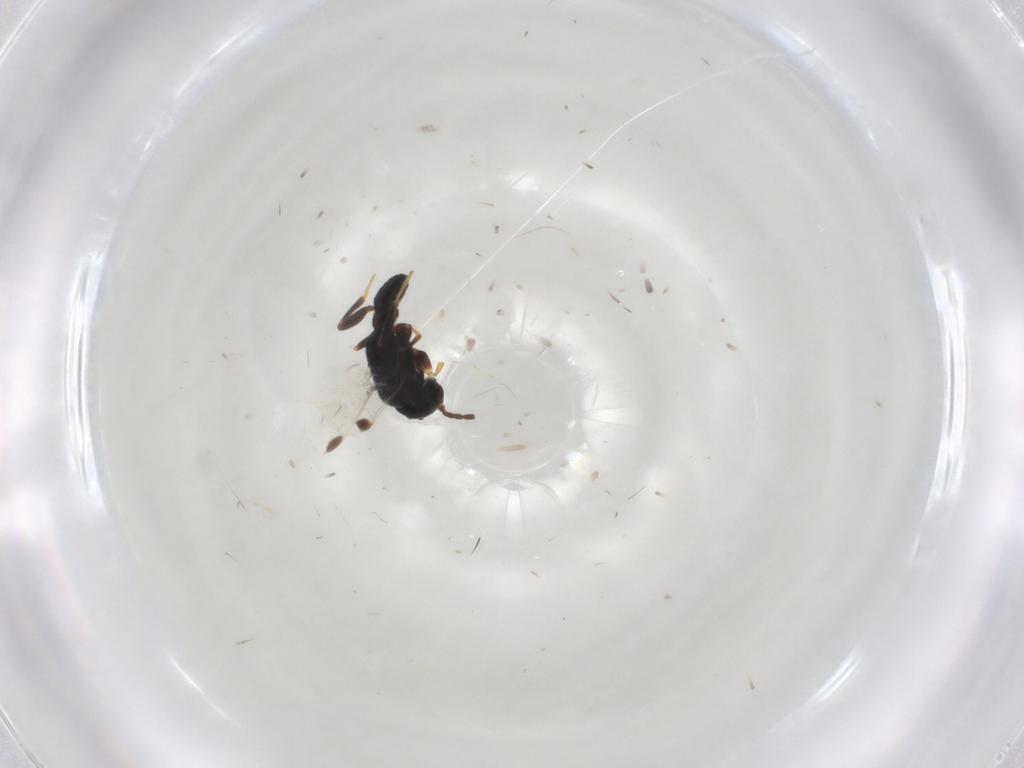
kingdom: Animalia
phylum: Arthropoda
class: Insecta
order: Hymenoptera
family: Dryinidae
